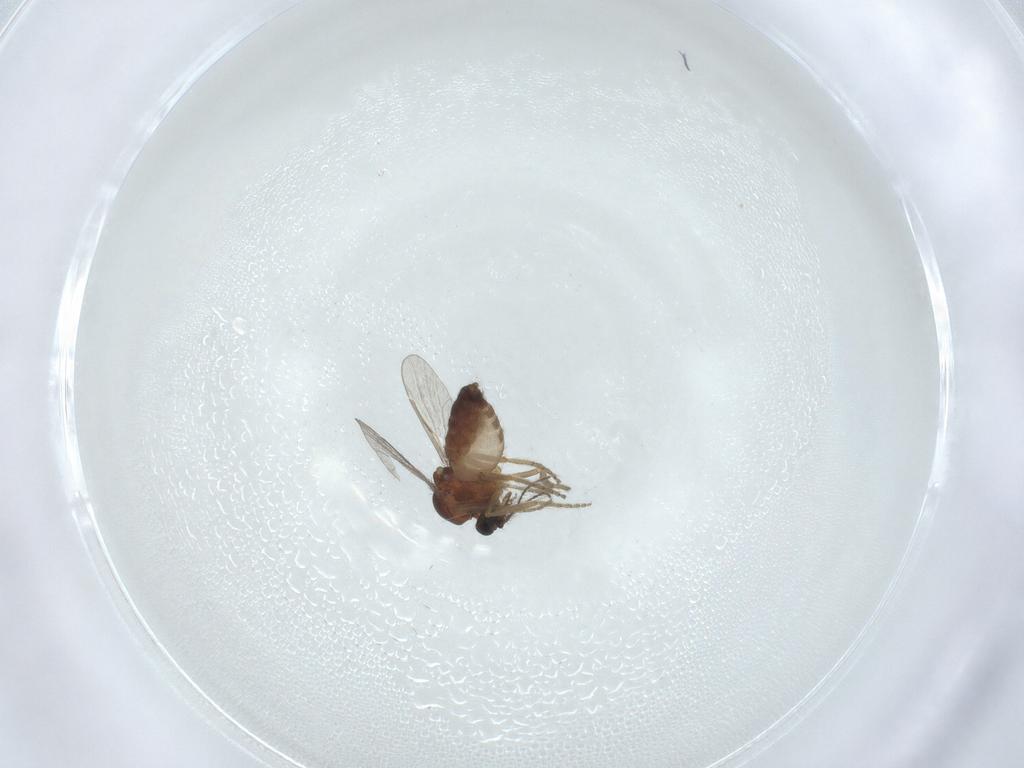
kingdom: Animalia
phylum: Arthropoda
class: Insecta
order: Diptera
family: Ceratopogonidae
